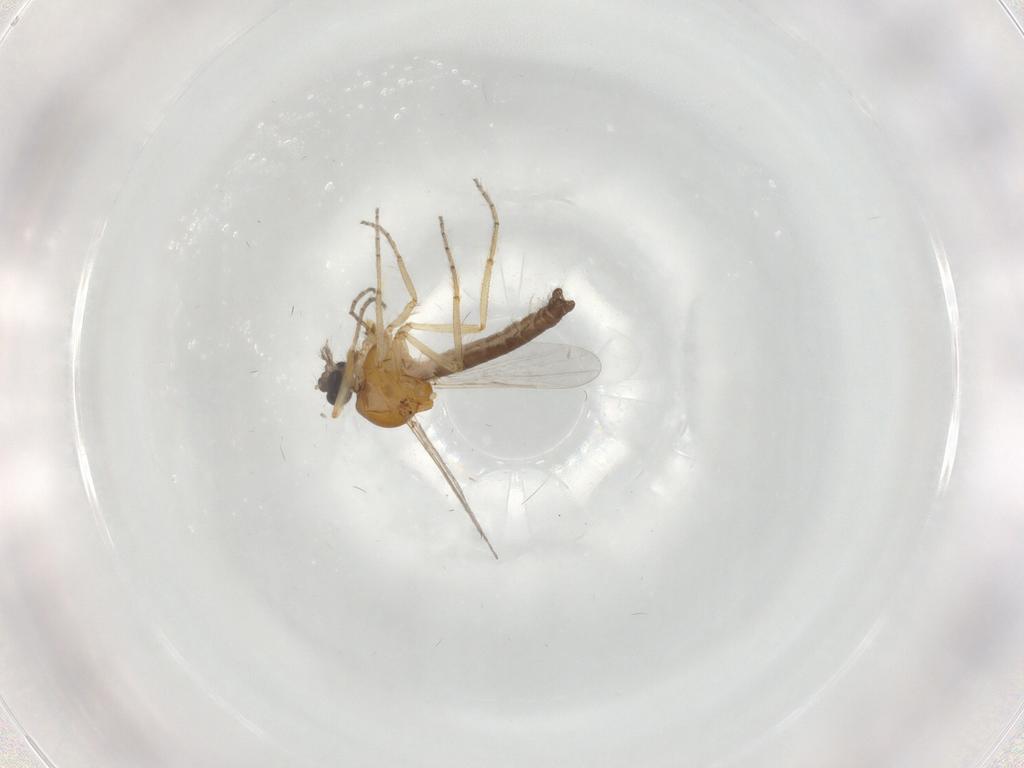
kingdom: Animalia
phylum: Arthropoda
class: Insecta
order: Diptera
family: Ceratopogonidae
